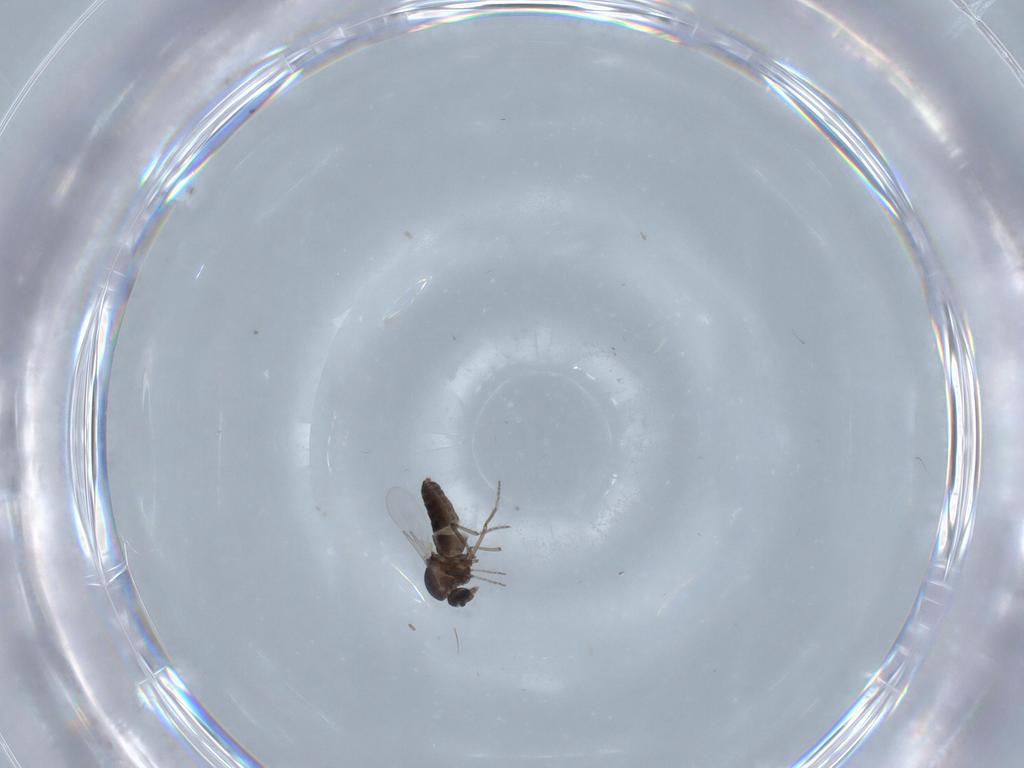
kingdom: Animalia
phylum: Arthropoda
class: Insecta
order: Diptera
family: Ceratopogonidae
